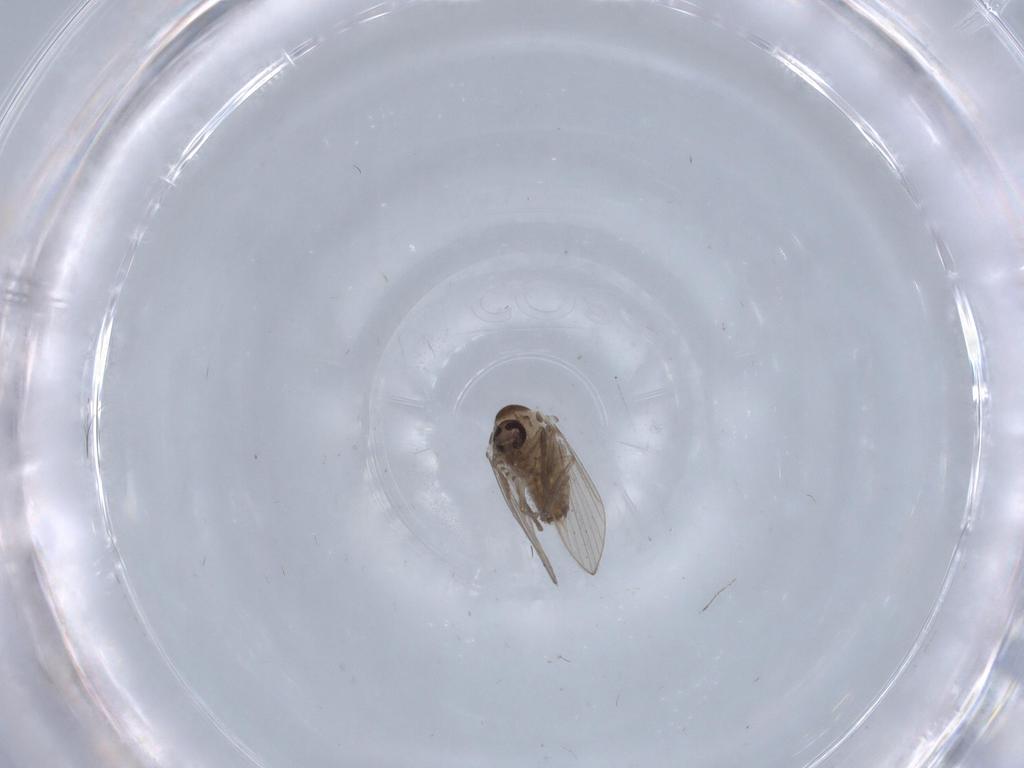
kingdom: Animalia
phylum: Arthropoda
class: Insecta
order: Diptera
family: Psychodidae
